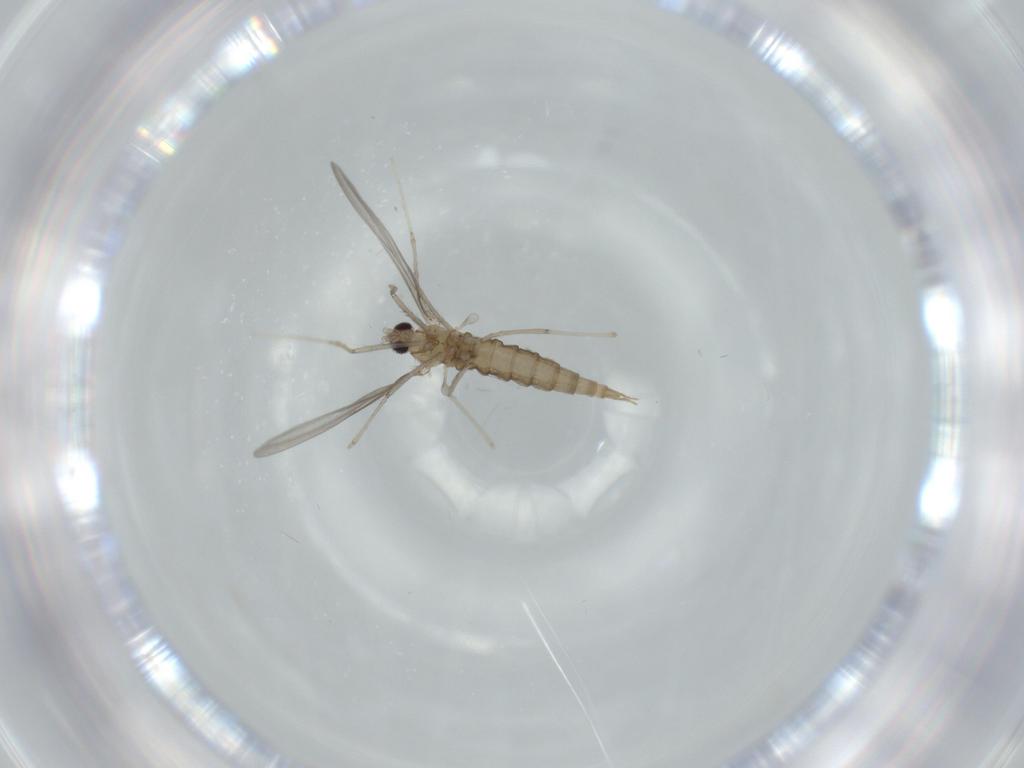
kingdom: Animalia
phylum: Arthropoda
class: Insecta
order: Diptera
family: Cecidomyiidae
